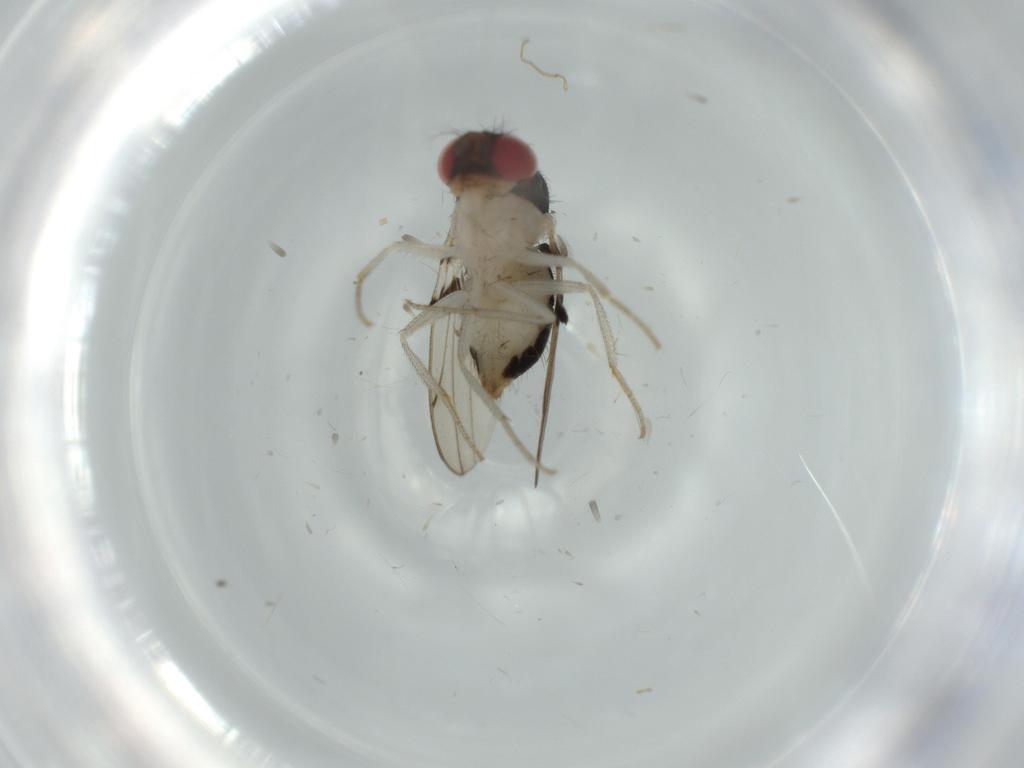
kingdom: Animalia
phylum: Arthropoda
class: Insecta
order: Diptera
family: Drosophilidae
